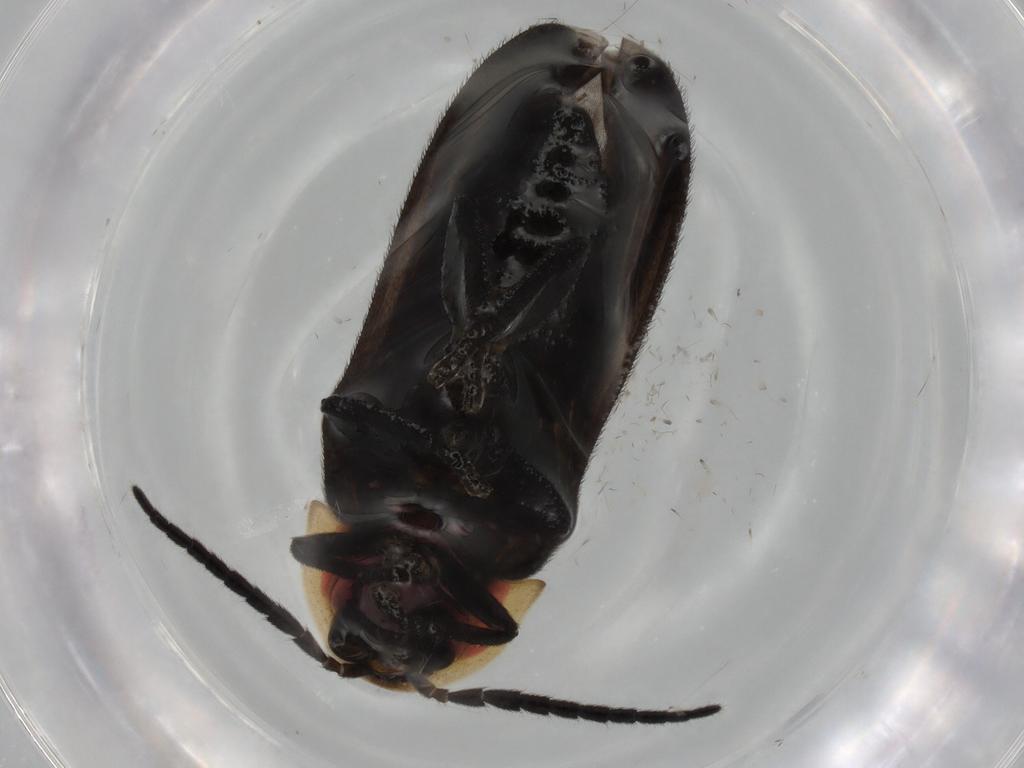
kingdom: Animalia
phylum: Arthropoda
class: Insecta
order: Coleoptera
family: Lampyridae
